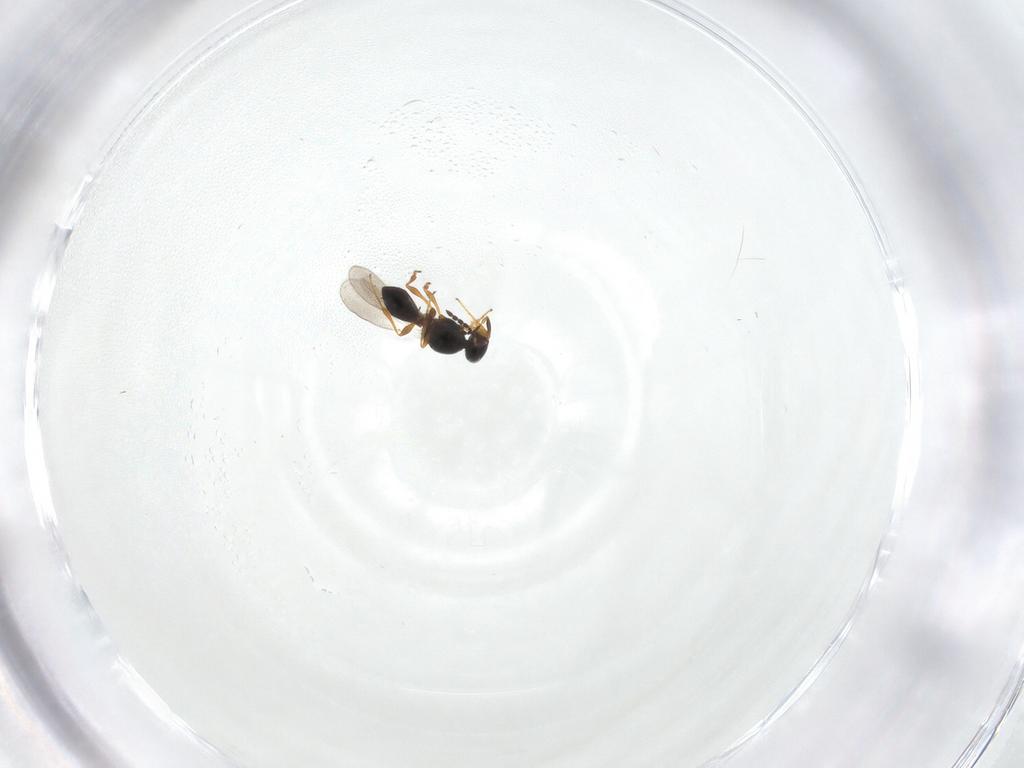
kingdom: Animalia
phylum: Arthropoda
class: Insecta
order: Hymenoptera
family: Platygastridae
